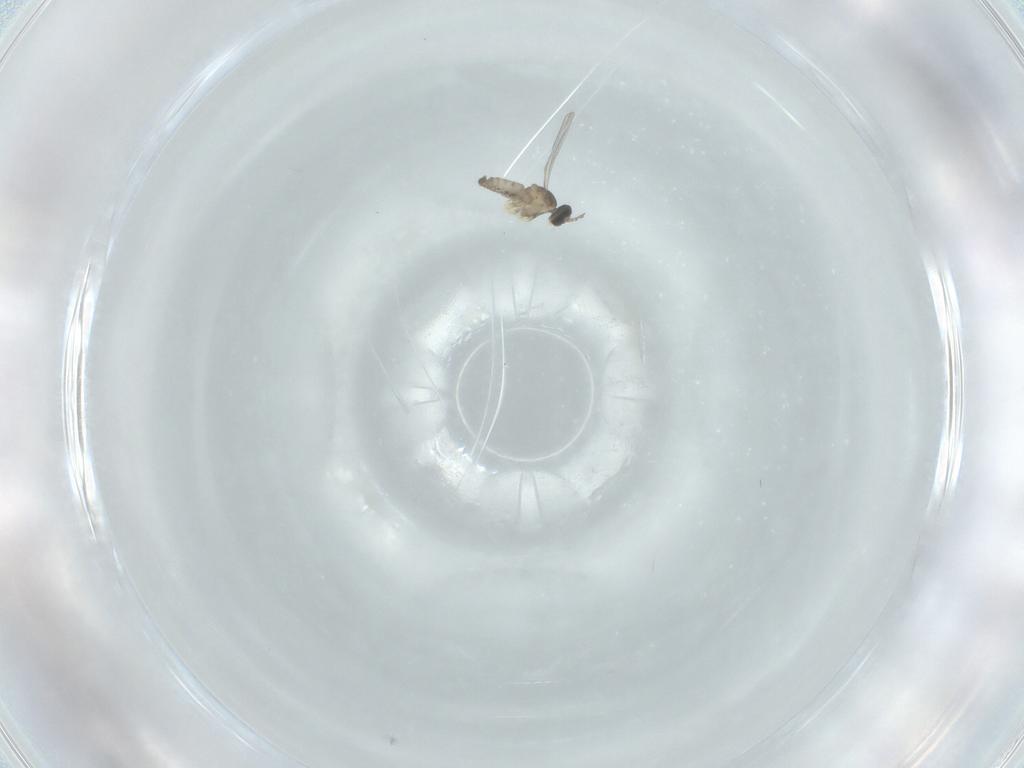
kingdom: Animalia
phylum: Arthropoda
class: Insecta
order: Diptera
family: Cecidomyiidae
